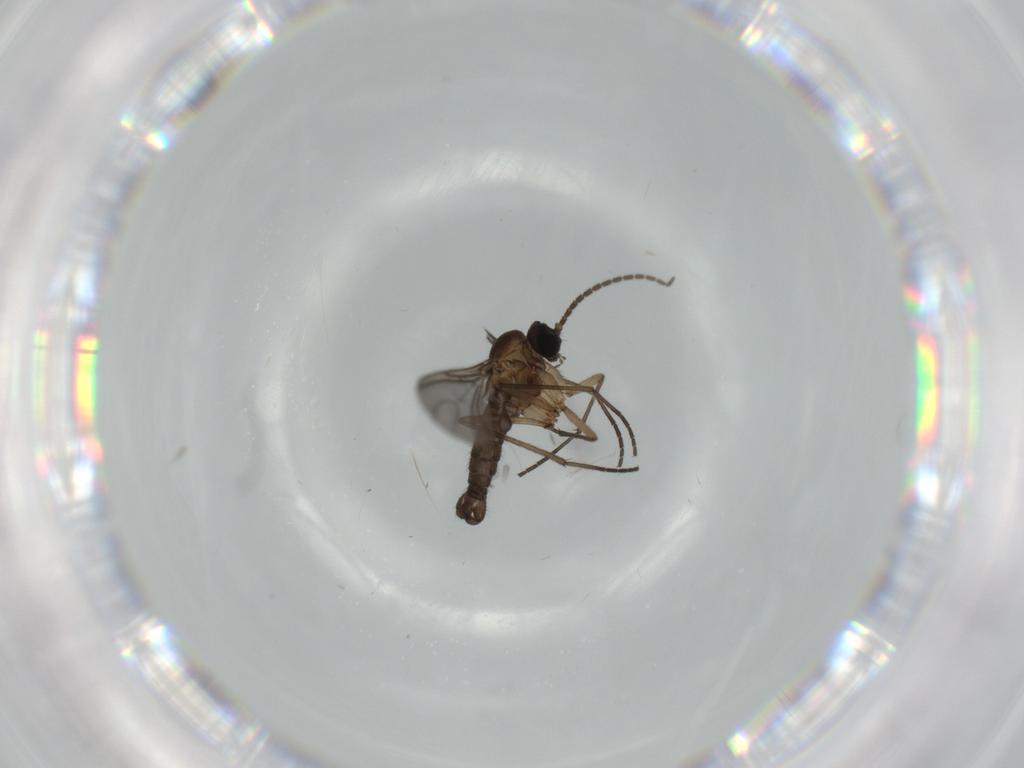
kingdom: Animalia
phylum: Arthropoda
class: Insecta
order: Diptera
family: Sciaridae
